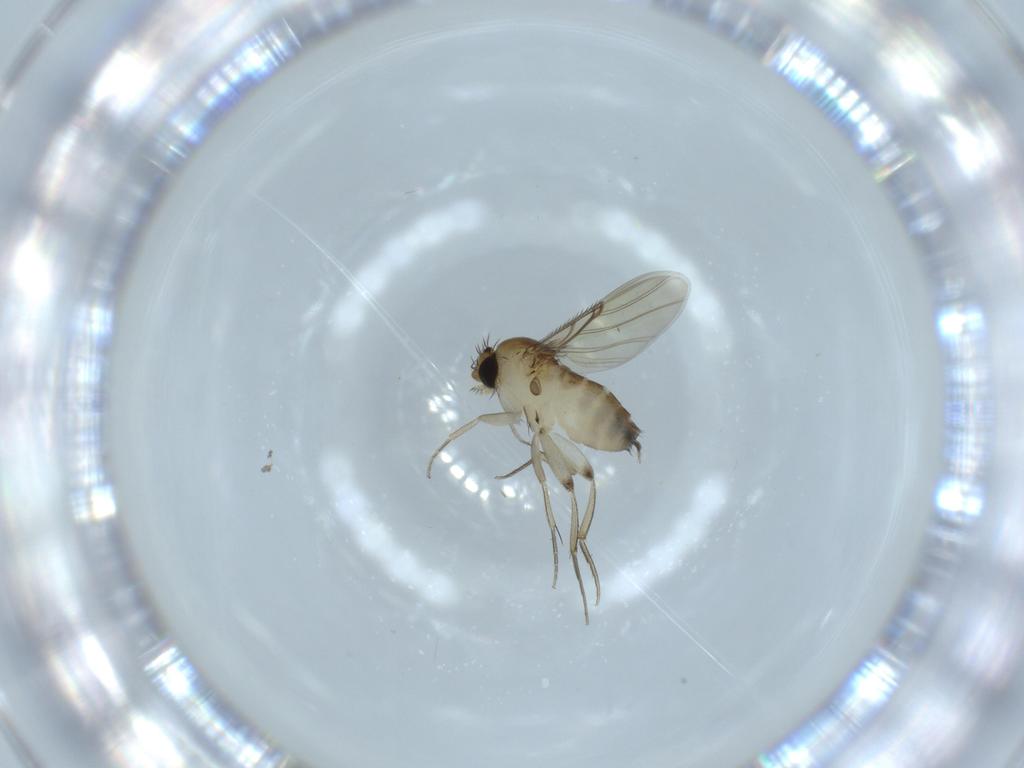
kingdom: Animalia
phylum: Arthropoda
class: Insecta
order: Diptera
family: Phoridae
